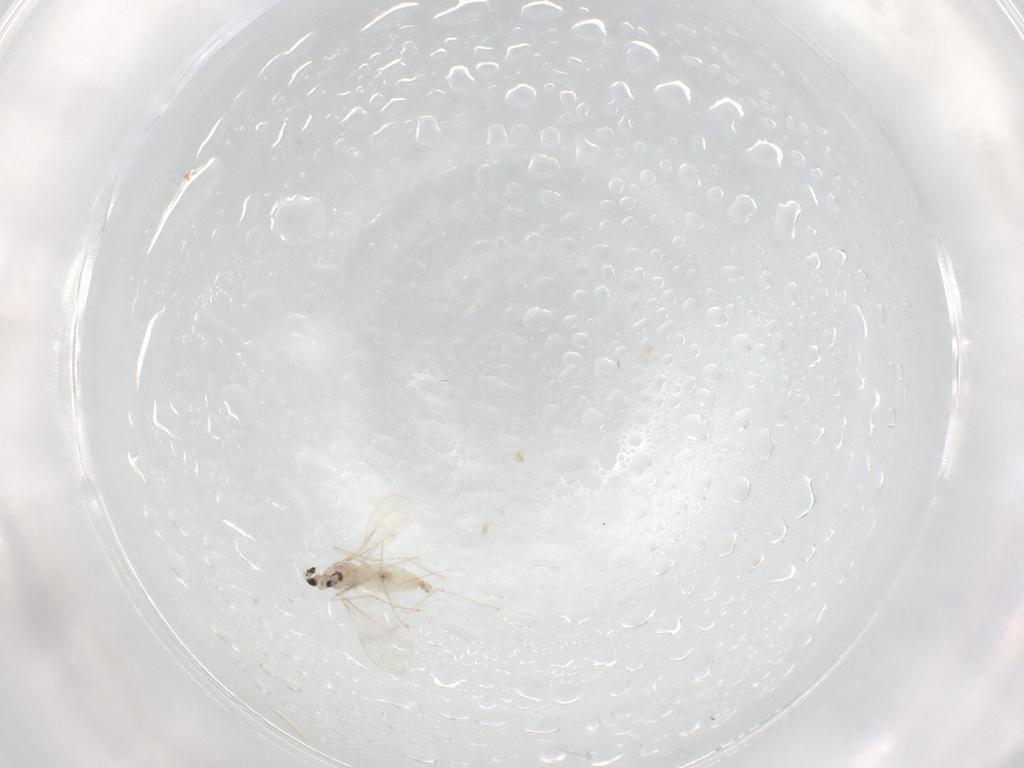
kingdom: Animalia
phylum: Arthropoda
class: Insecta
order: Diptera
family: Cecidomyiidae
